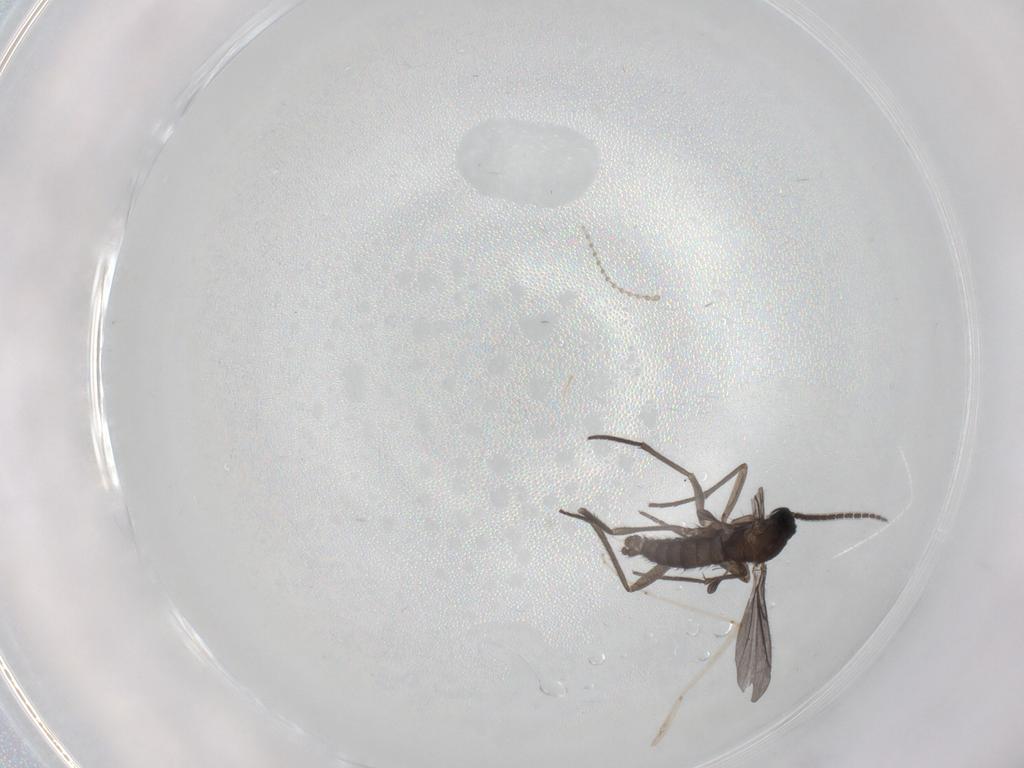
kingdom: Animalia
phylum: Arthropoda
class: Insecta
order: Diptera
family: Sciaridae
